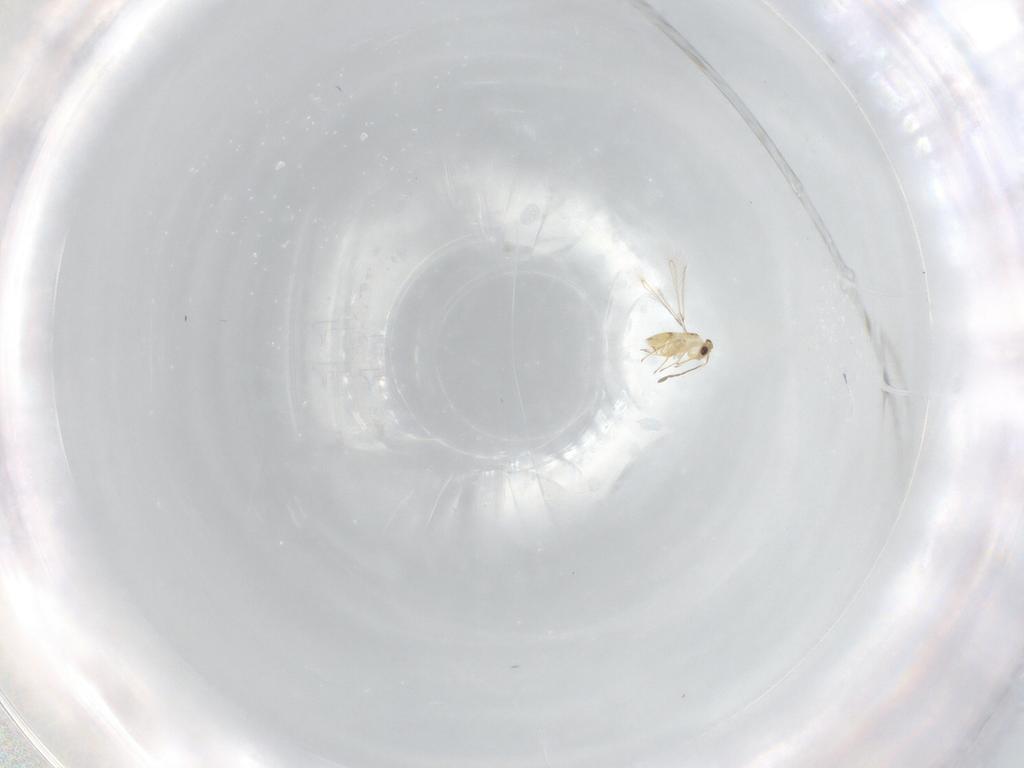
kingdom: Animalia
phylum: Arthropoda
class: Insecta
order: Hymenoptera
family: Mymaridae
